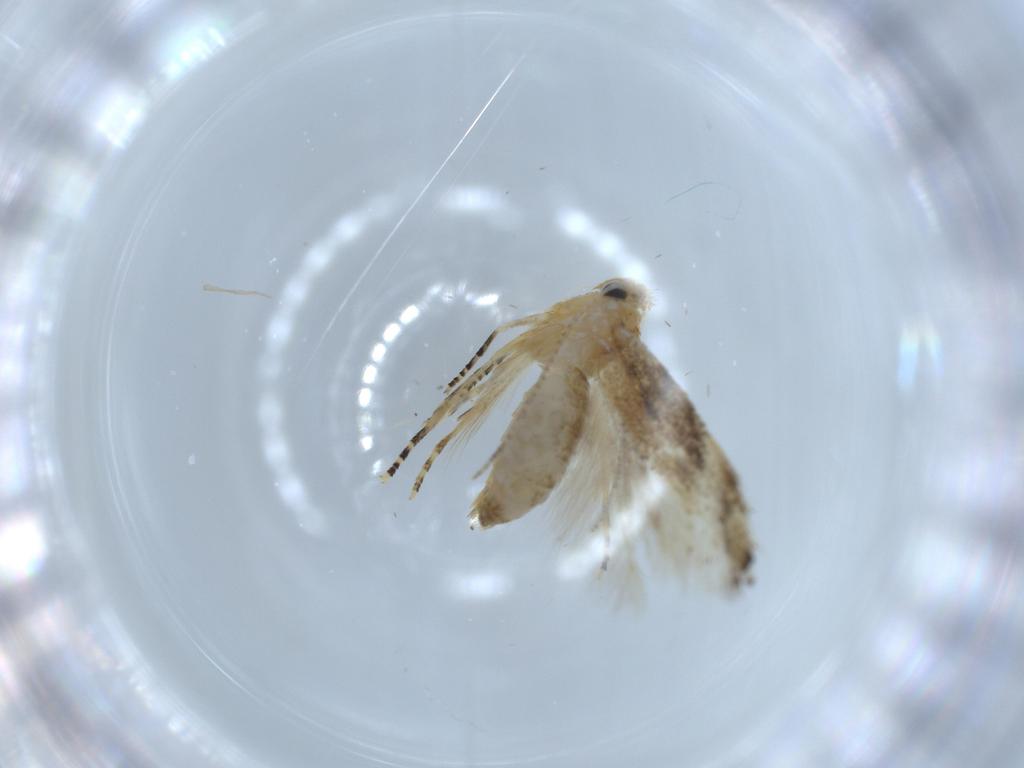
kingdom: Animalia
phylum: Arthropoda
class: Insecta
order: Lepidoptera
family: Bucculatricidae
